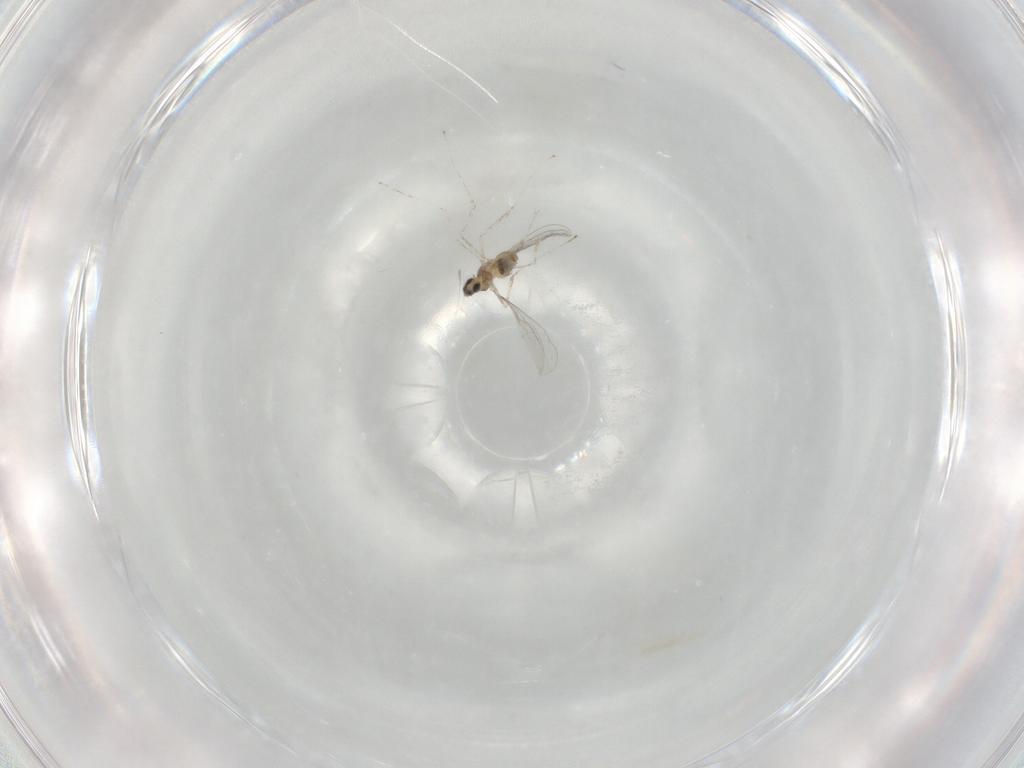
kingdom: Animalia
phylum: Arthropoda
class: Insecta
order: Diptera
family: Cecidomyiidae
